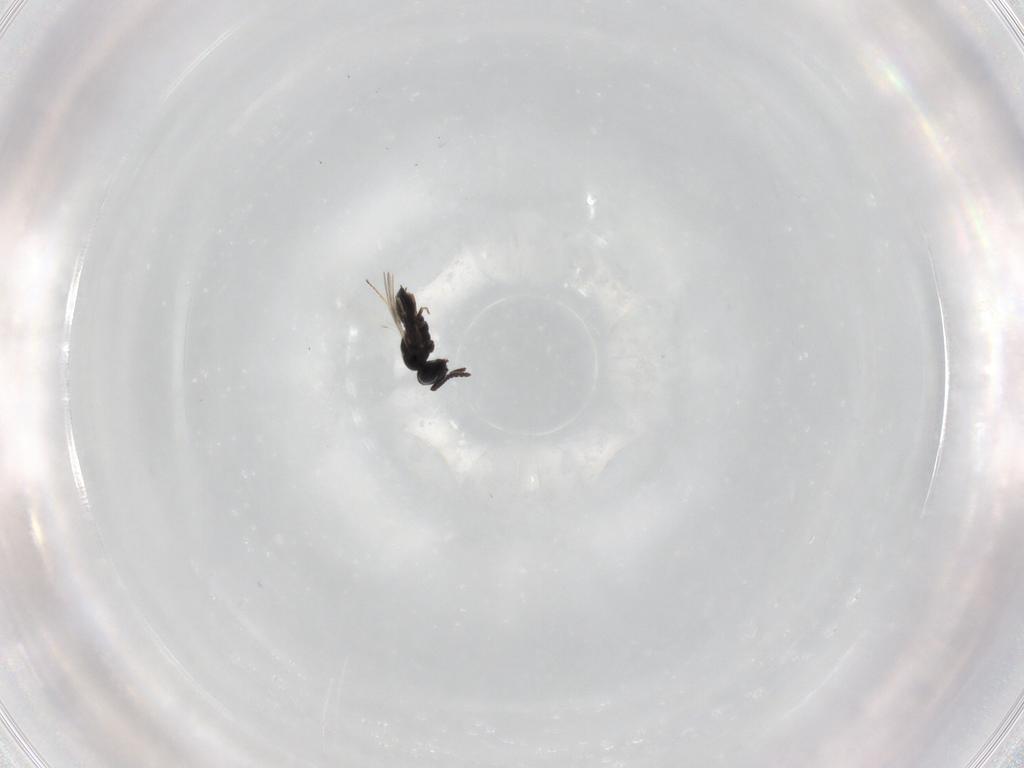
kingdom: Animalia
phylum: Arthropoda
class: Insecta
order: Hymenoptera
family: Scelionidae
